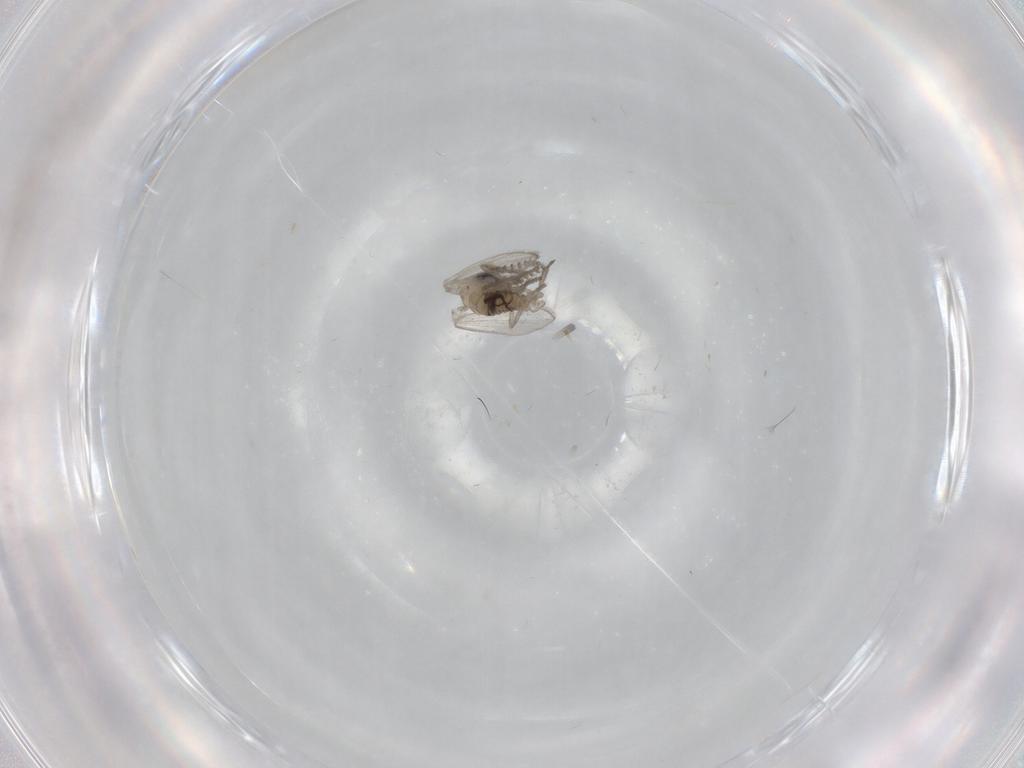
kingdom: Animalia
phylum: Arthropoda
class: Insecta
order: Diptera
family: Psychodidae
